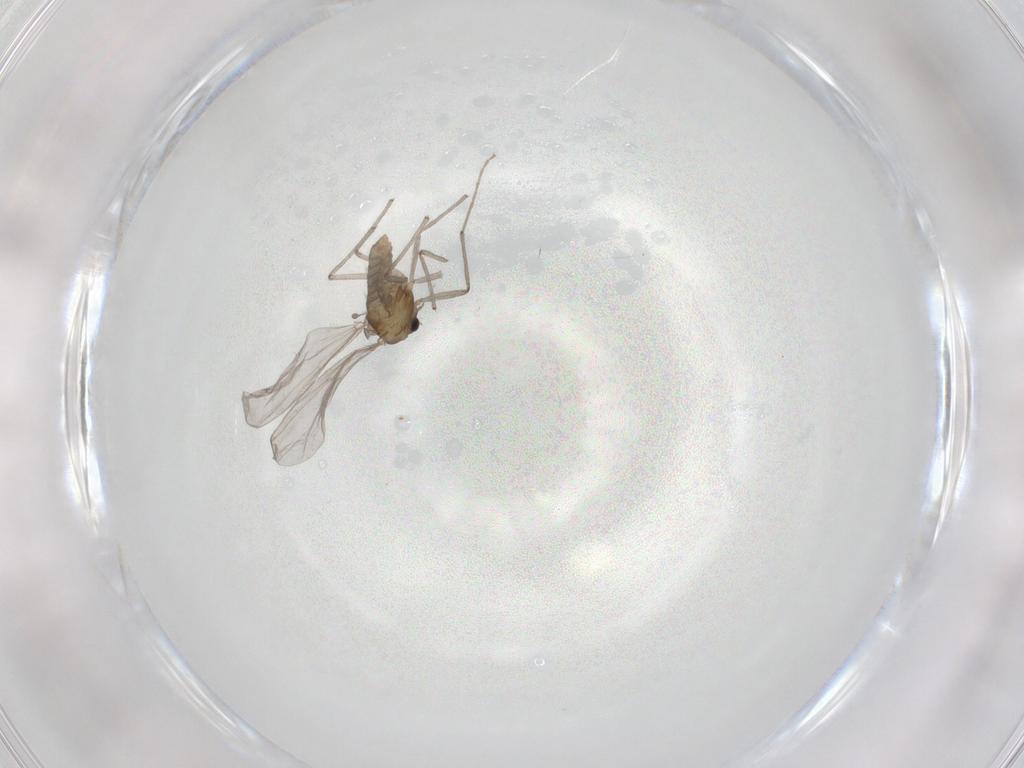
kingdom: Animalia
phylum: Arthropoda
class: Insecta
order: Diptera
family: Chironomidae
